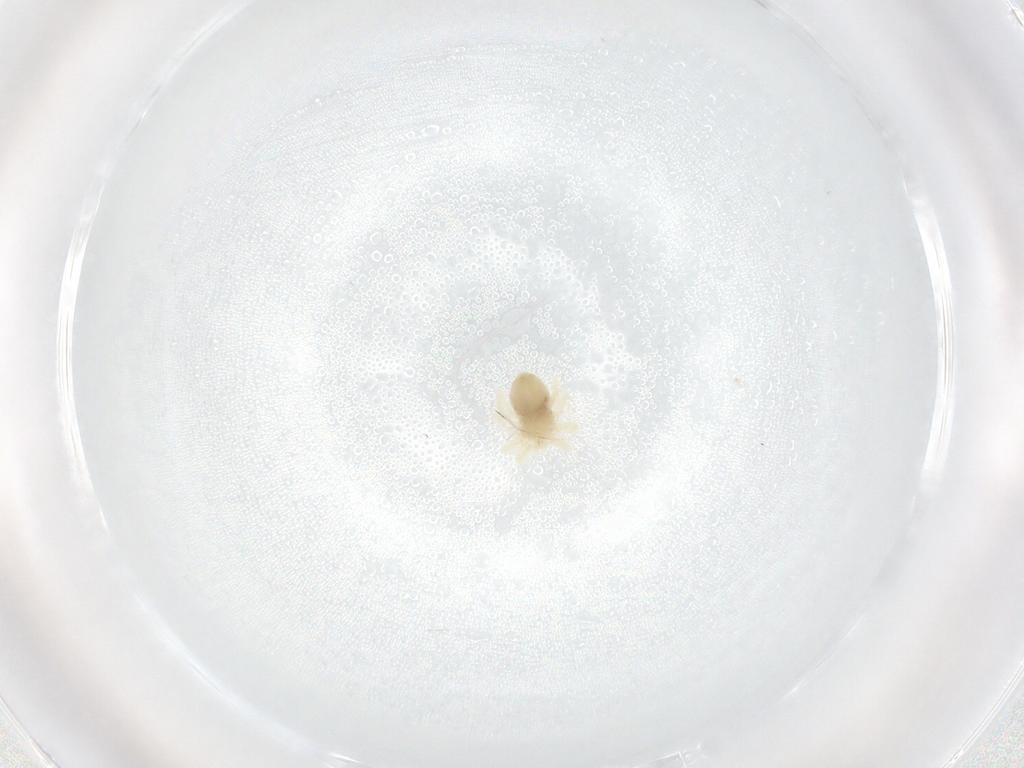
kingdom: Animalia
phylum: Arthropoda
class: Arachnida
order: Trombidiformes
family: Anystidae
